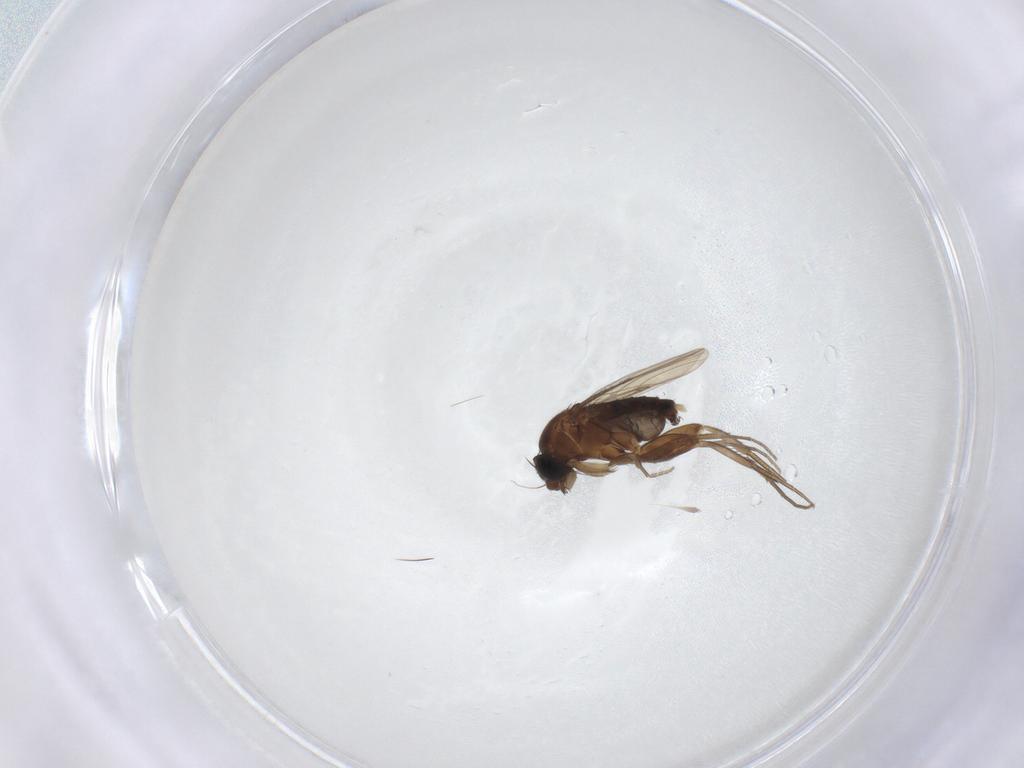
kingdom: Animalia
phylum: Arthropoda
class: Insecta
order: Diptera
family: Phoridae
